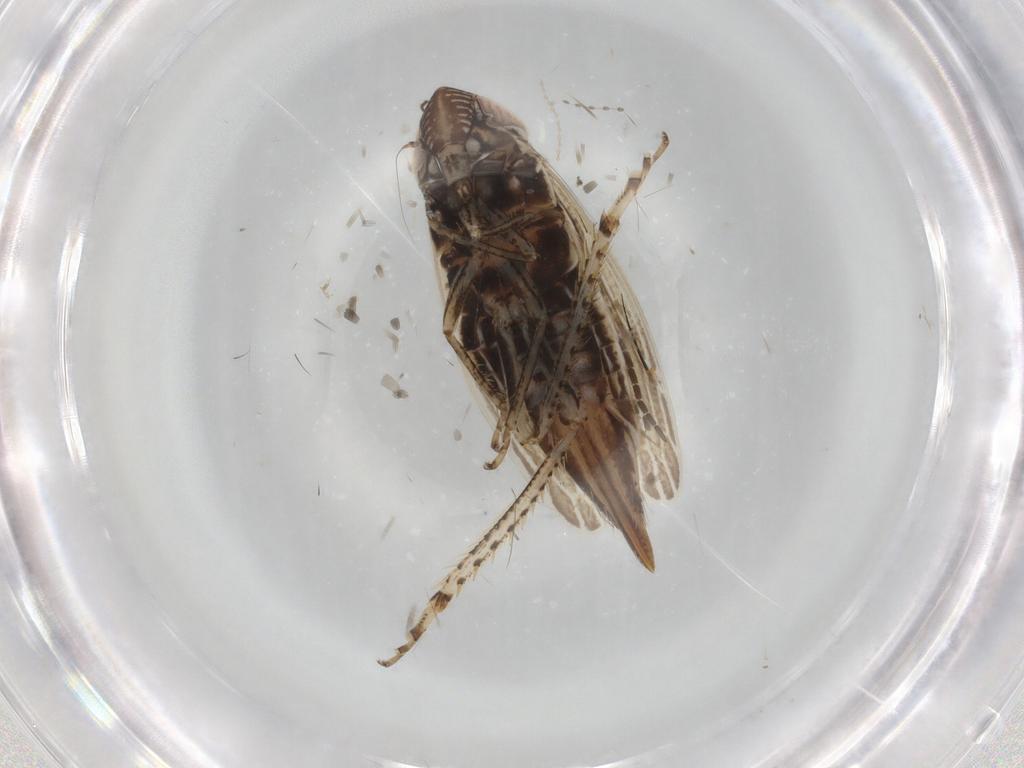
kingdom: Animalia
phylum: Arthropoda
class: Insecta
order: Hemiptera
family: Cicadellidae
